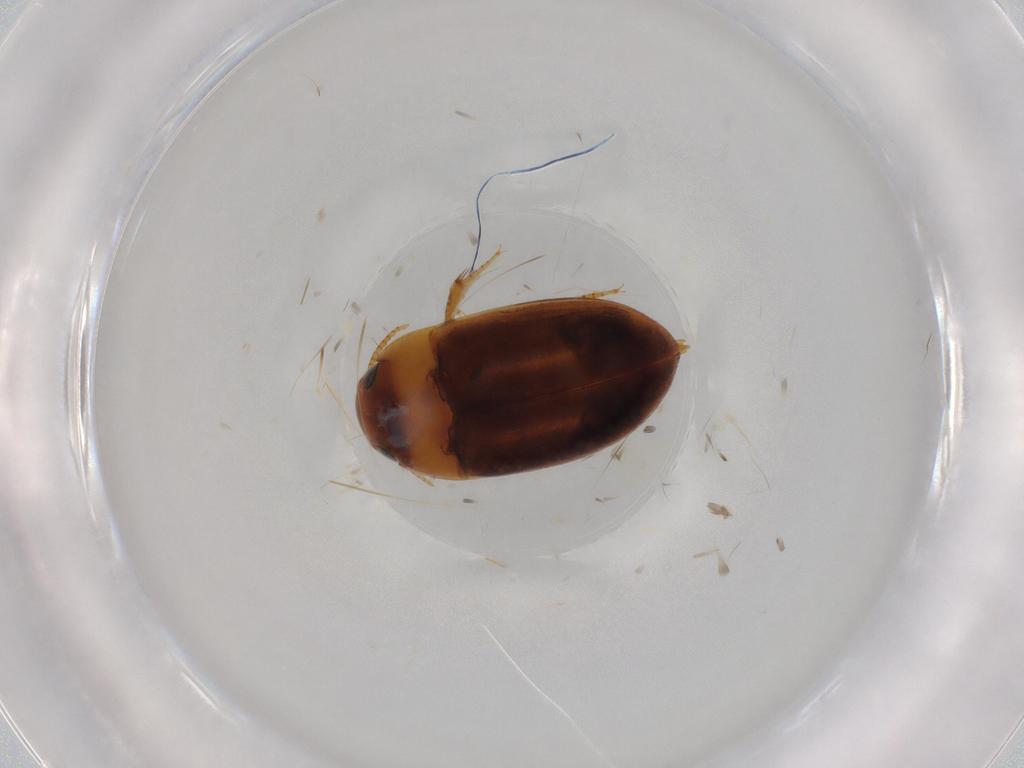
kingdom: Animalia
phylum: Arthropoda
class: Insecta
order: Coleoptera
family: Noteridae
